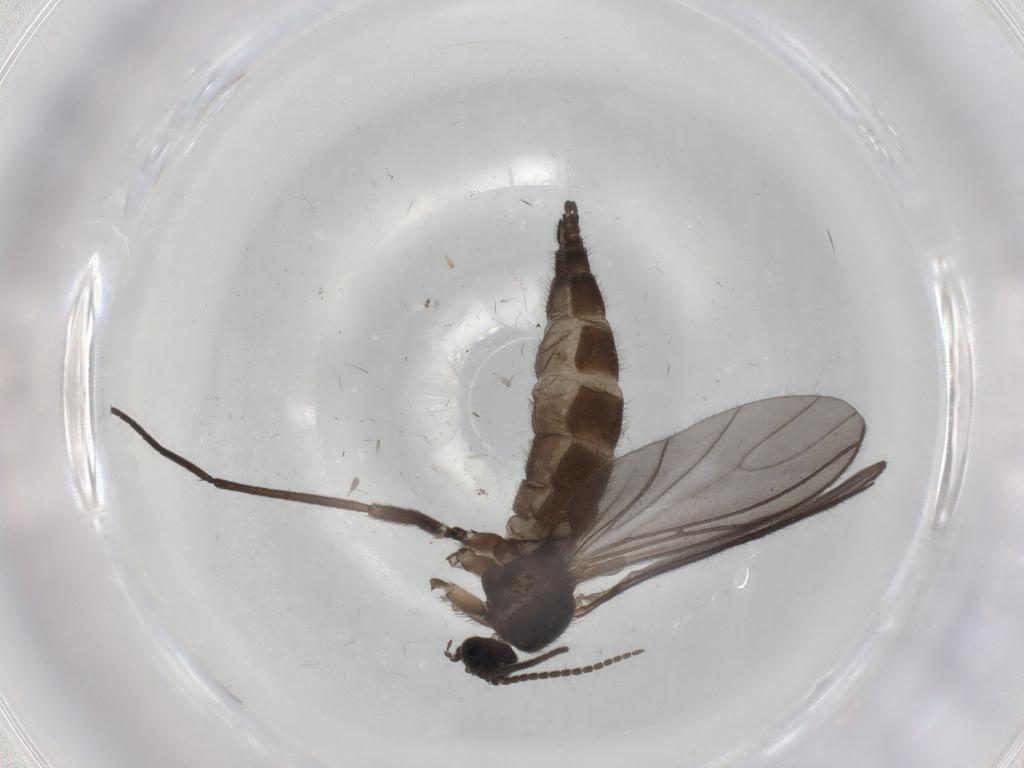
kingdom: Animalia
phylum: Arthropoda
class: Insecta
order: Diptera
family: Sciaridae
